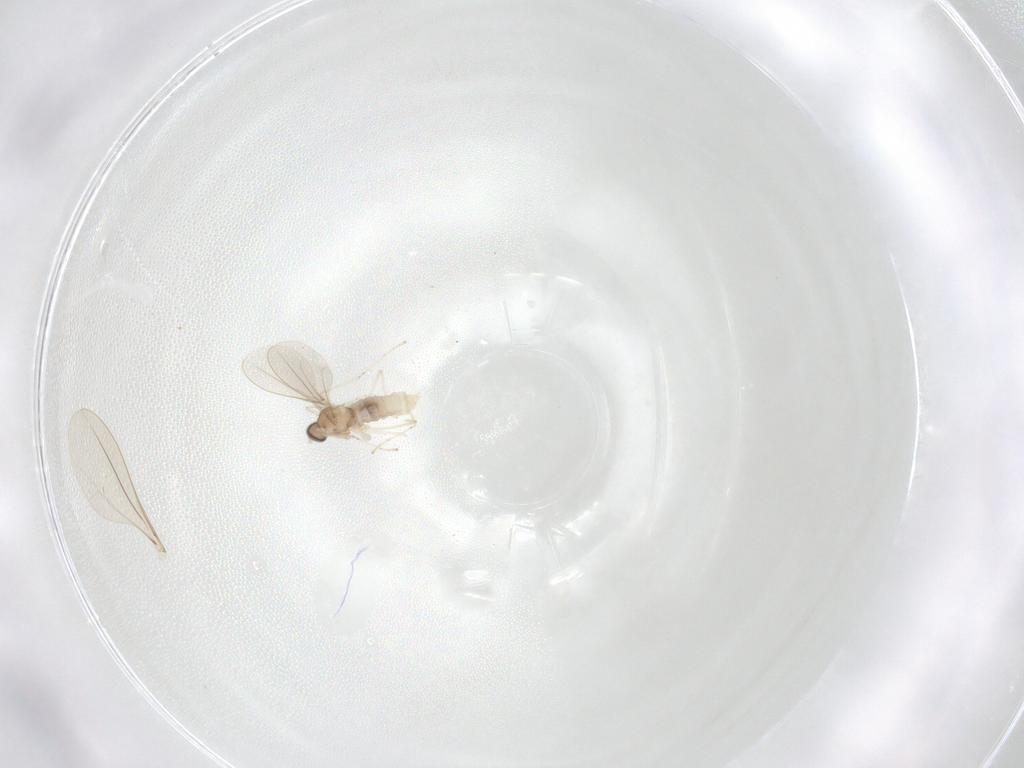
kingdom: Animalia
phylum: Arthropoda
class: Insecta
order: Diptera
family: Cecidomyiidae
